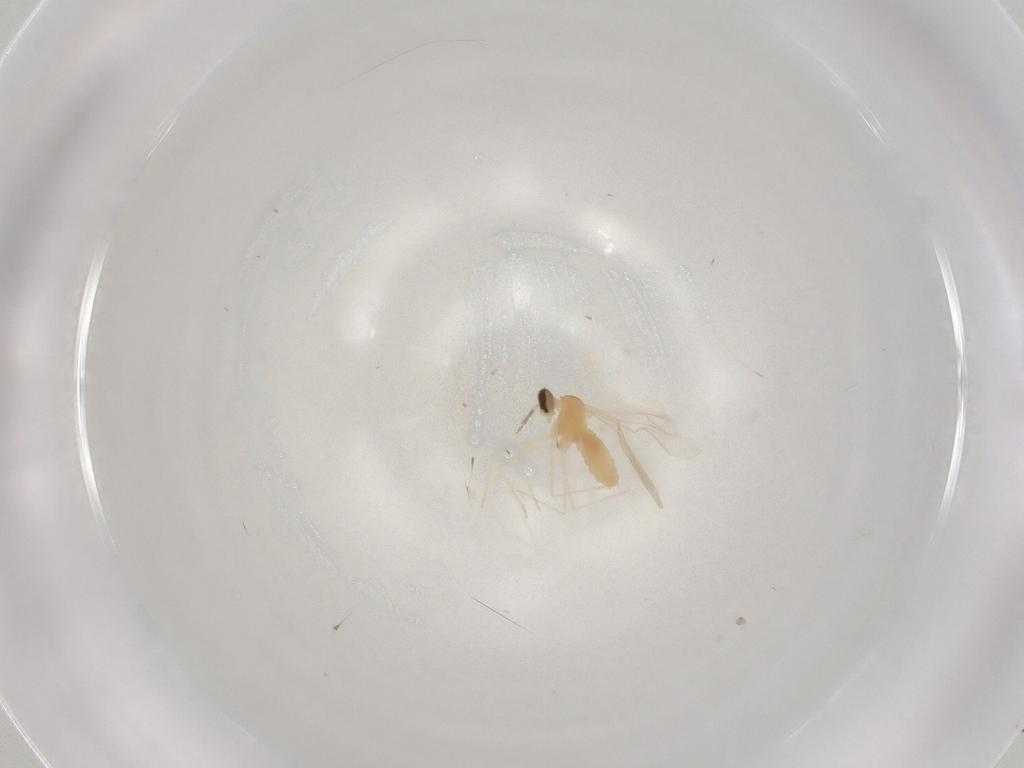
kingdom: Animalia
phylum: Arthropoda
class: Insecta
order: Diptera
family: Cecidomyiidae
